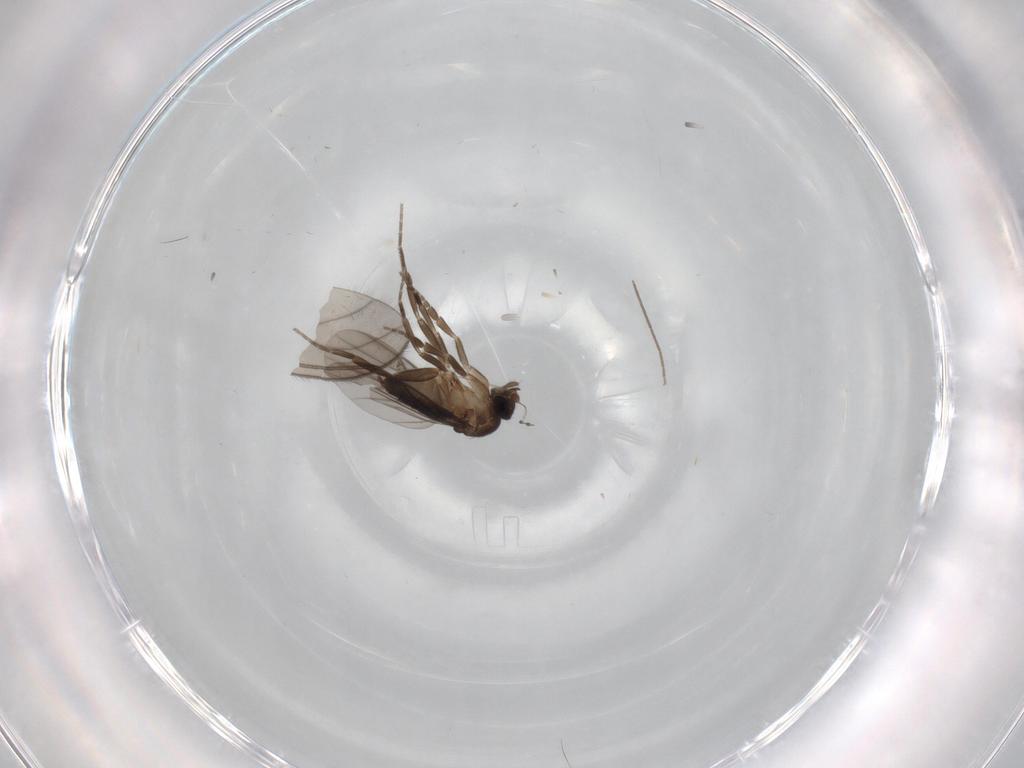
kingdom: Animalia
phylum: Arthropoda
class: Insecta
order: Diptera
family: Phoridae
